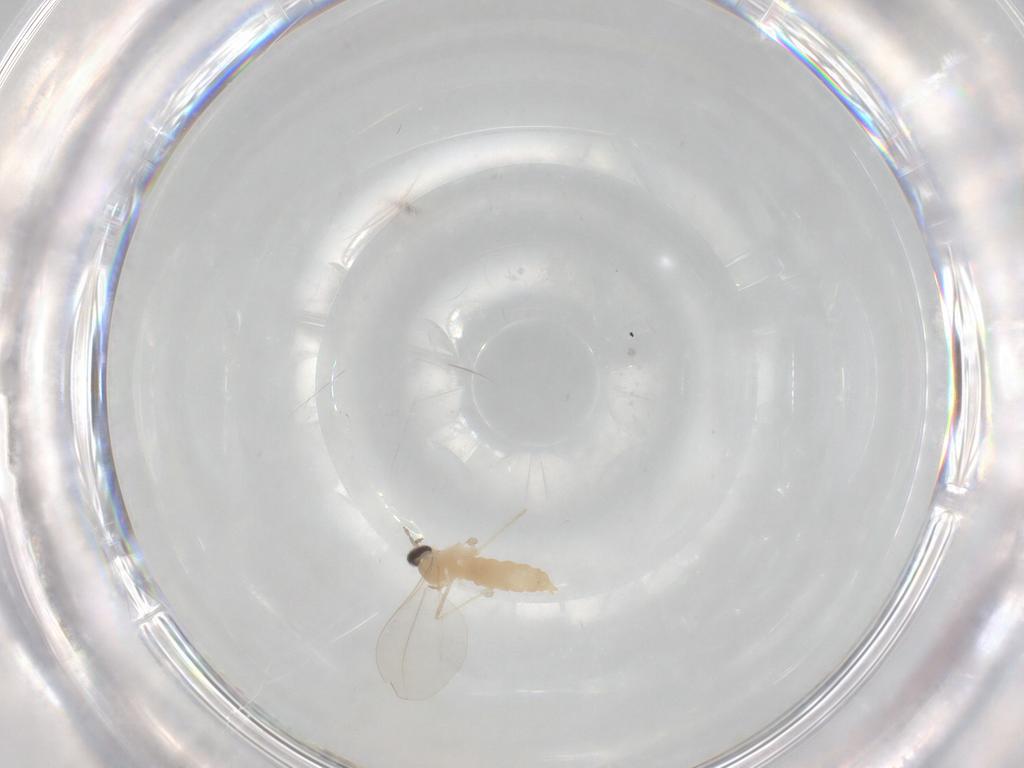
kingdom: Animalia
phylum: Arthropoda
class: Insecta
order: Diptera
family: Cecidomyiidae
